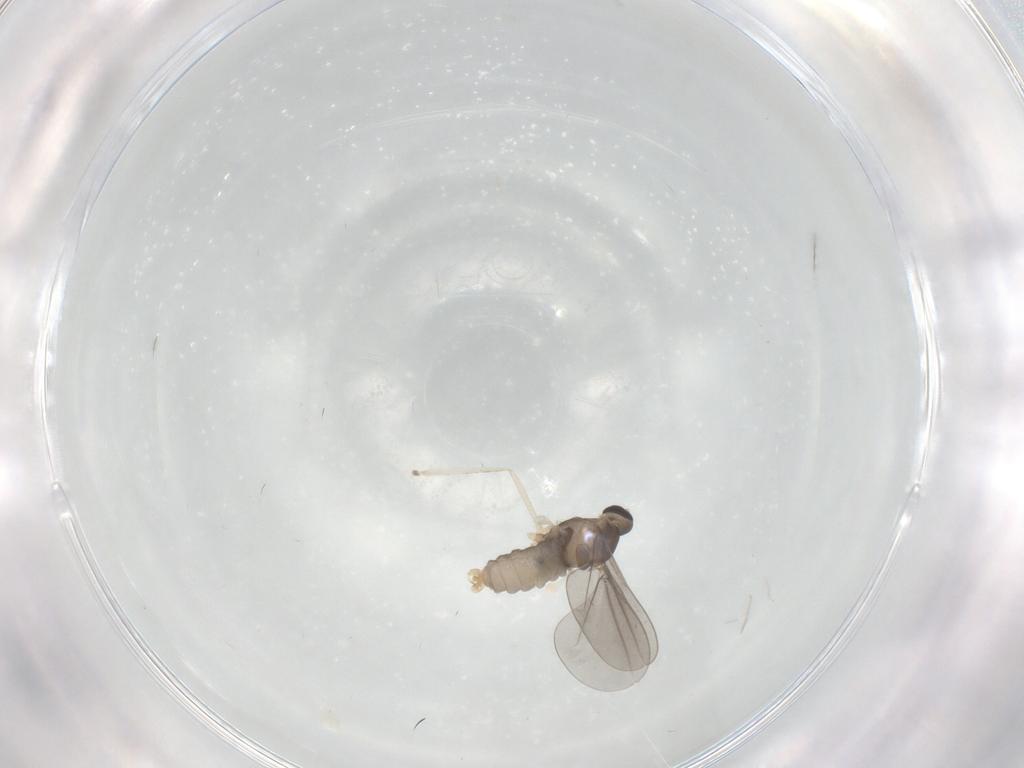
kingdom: Animalia
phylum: Arthropoda
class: Insecta
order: Diptera
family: Cecidomyiidae
